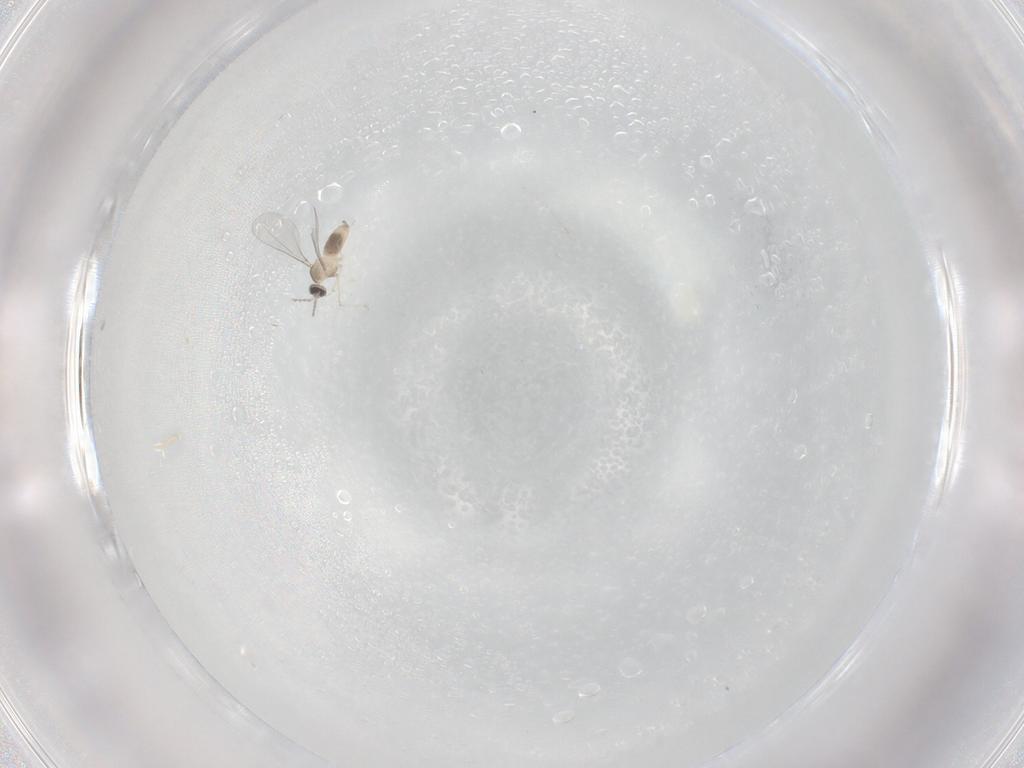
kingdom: Animalia
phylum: Arthropoda
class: Insecta
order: Diptera
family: Cecidomyiidae
